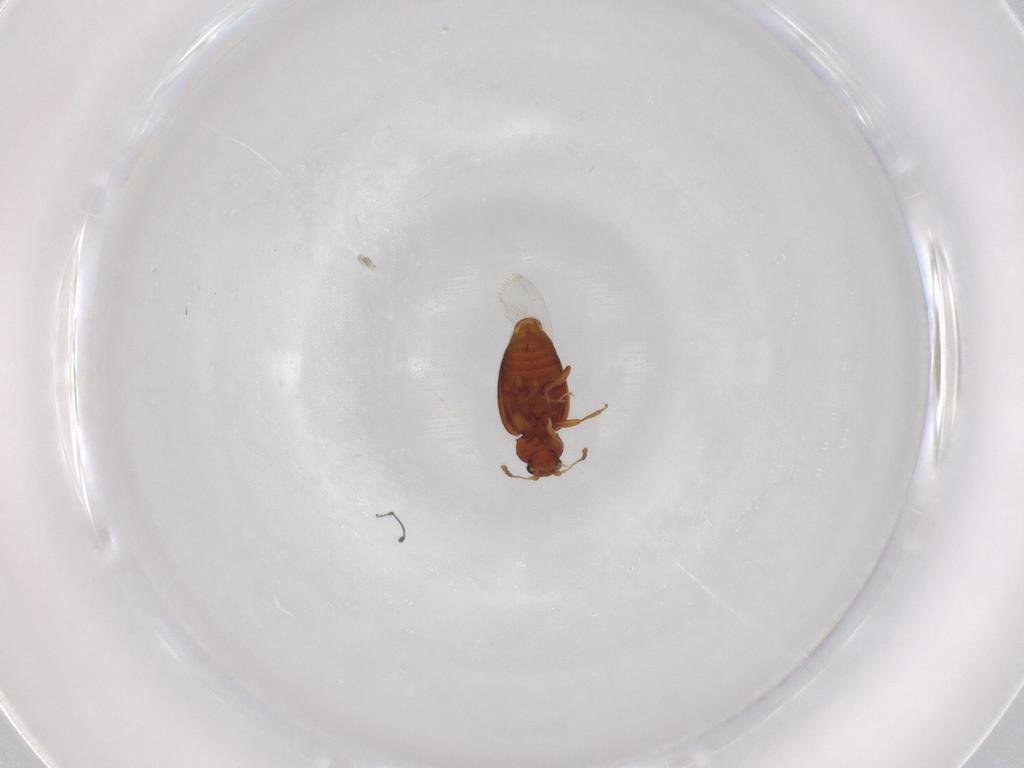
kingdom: Animalia
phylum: Arthropoda
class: Insecta
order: Coleoptera
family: Latridiidae
